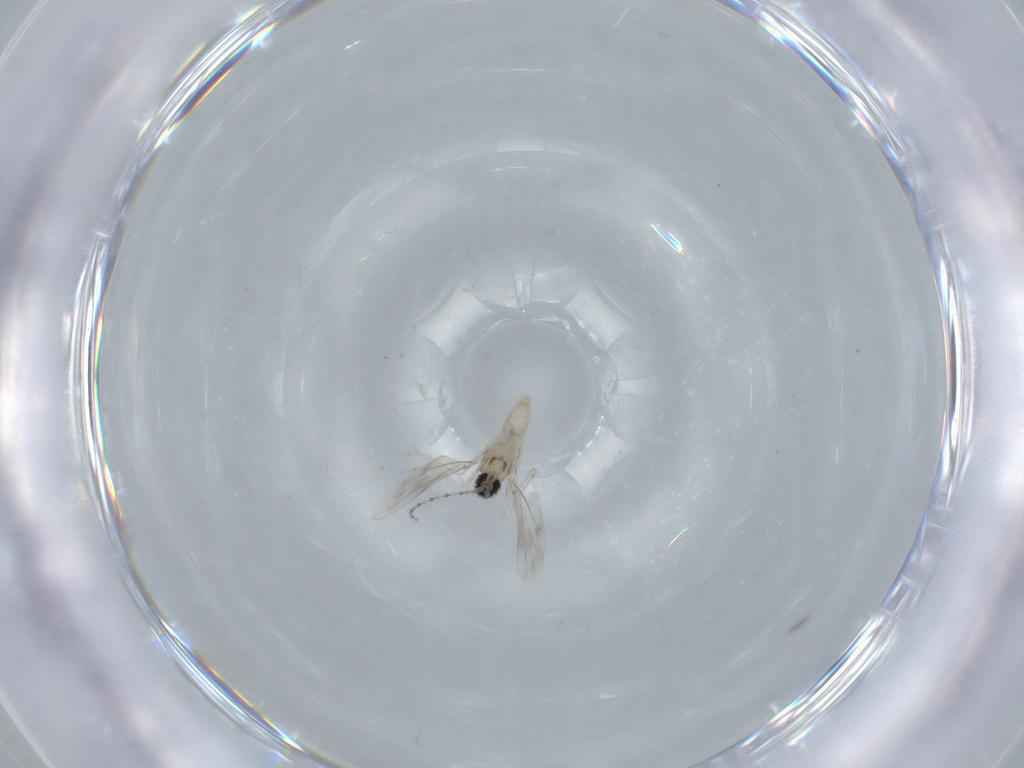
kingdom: Animalia
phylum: Arthropoda
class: Insecta
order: Diptera
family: Cecidomyiidae
